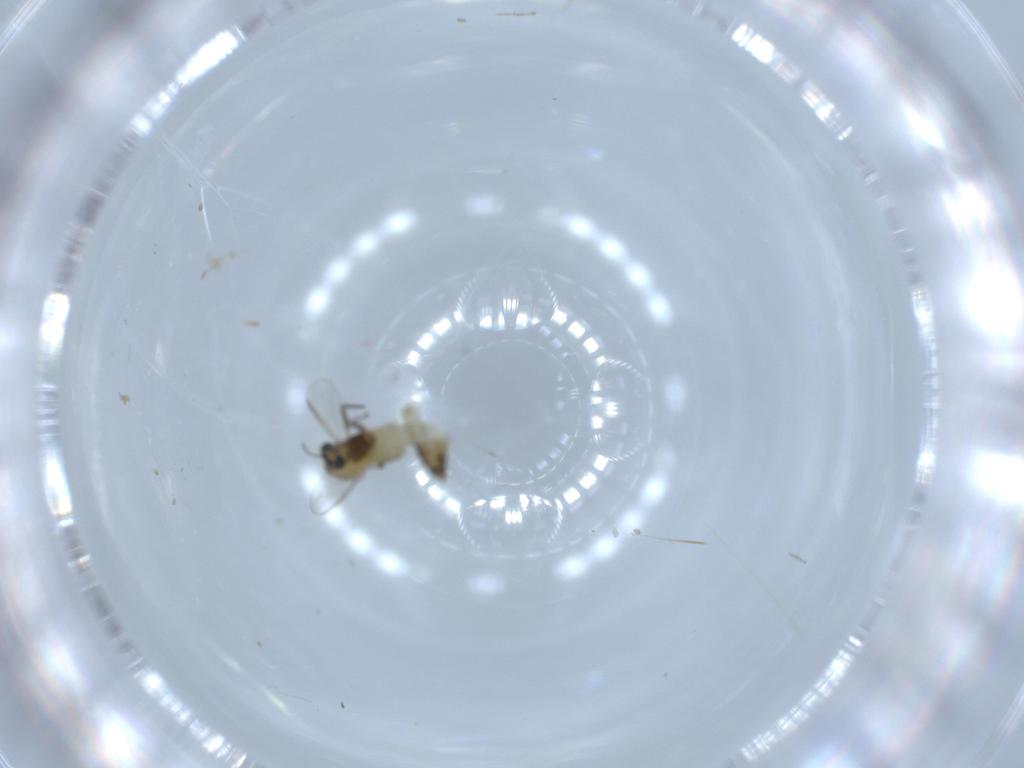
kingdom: Animalia
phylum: Arthropoda
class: Insecta
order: Diptera
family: Chironomidae
